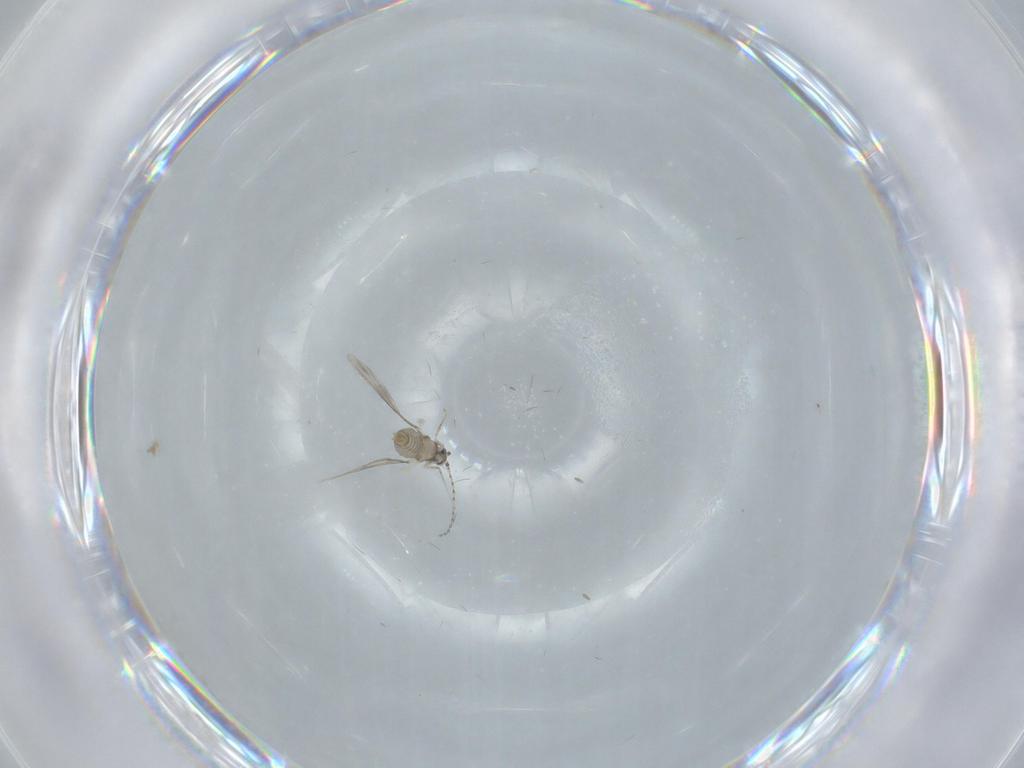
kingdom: Animalia
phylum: Arthropoda
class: Insecta
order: Diptera
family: Cecidomyiidae
